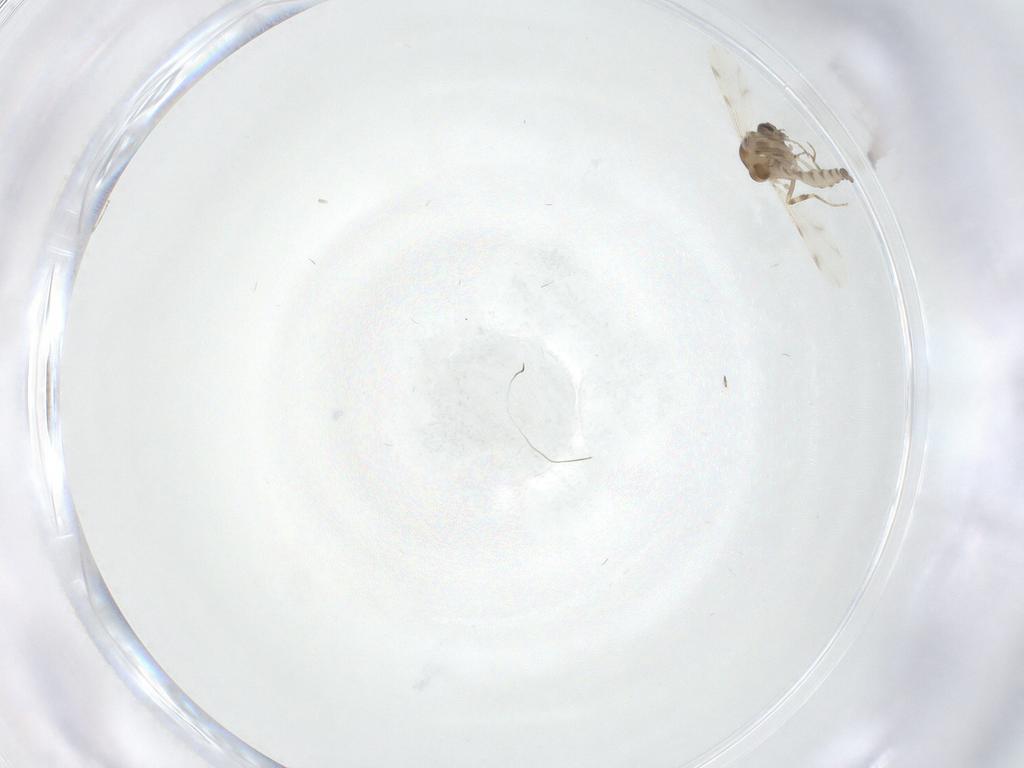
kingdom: Animalia
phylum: Arthropoda
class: Insecta
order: Diptera
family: Ceratopogonidae
